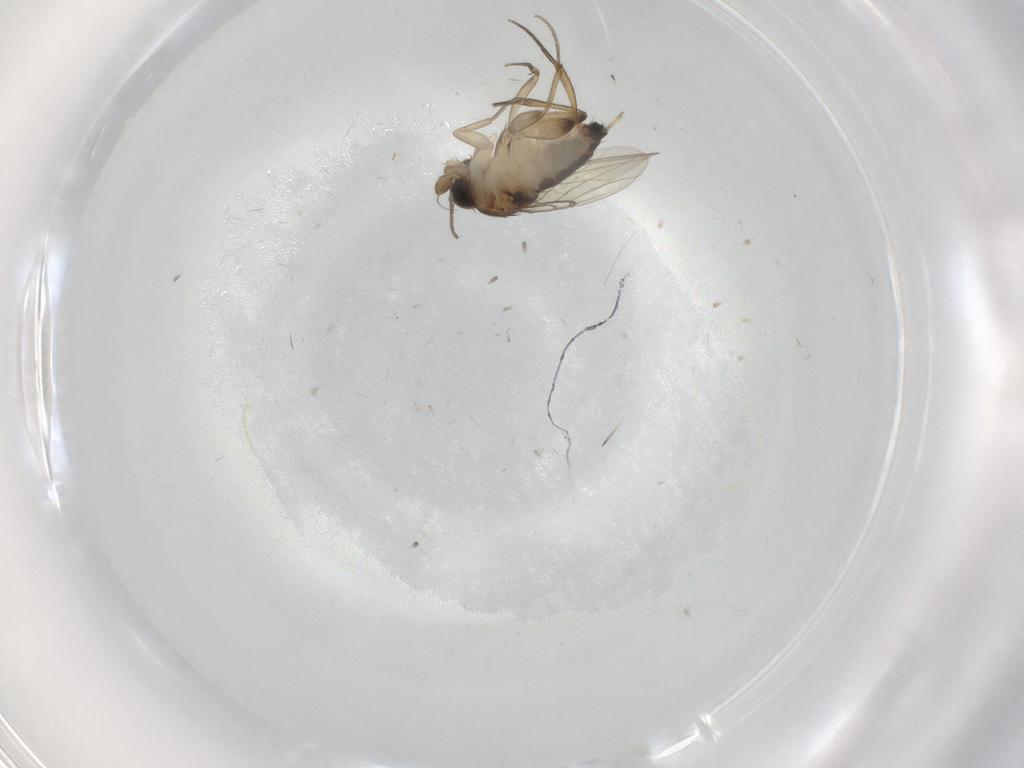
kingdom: Animalia
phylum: Arthropoda
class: Insecta
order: Diptera
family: Phoridae
